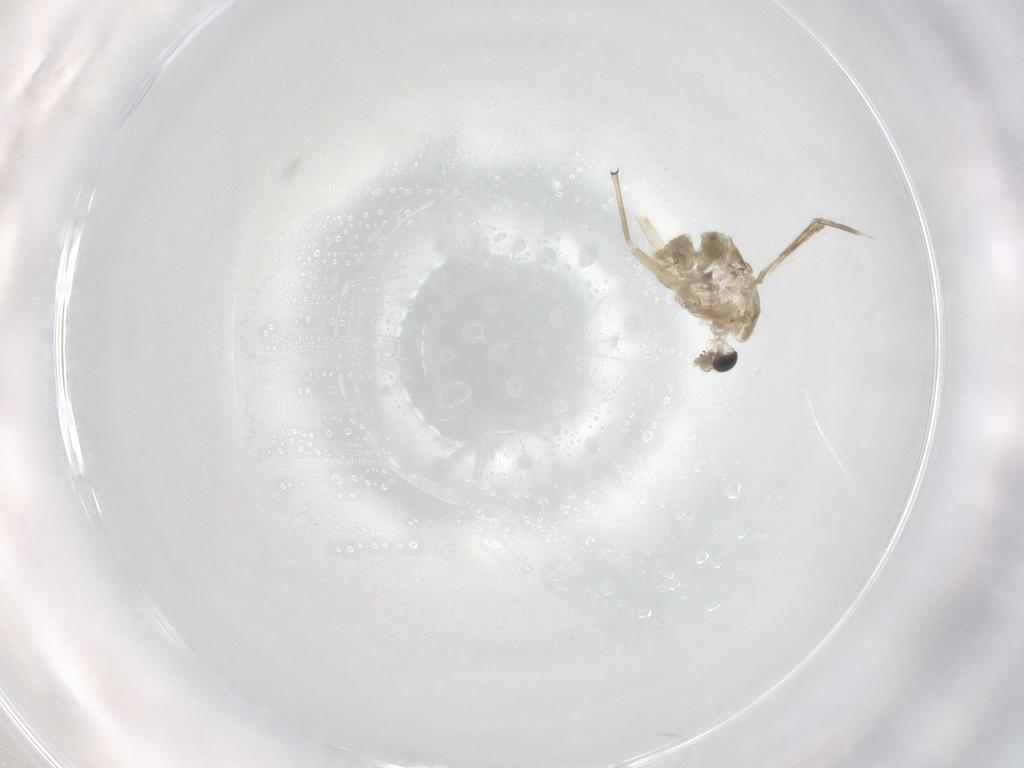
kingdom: Animalia
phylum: Arthropoda
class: Insecta
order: Diptera
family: Psychodidae
